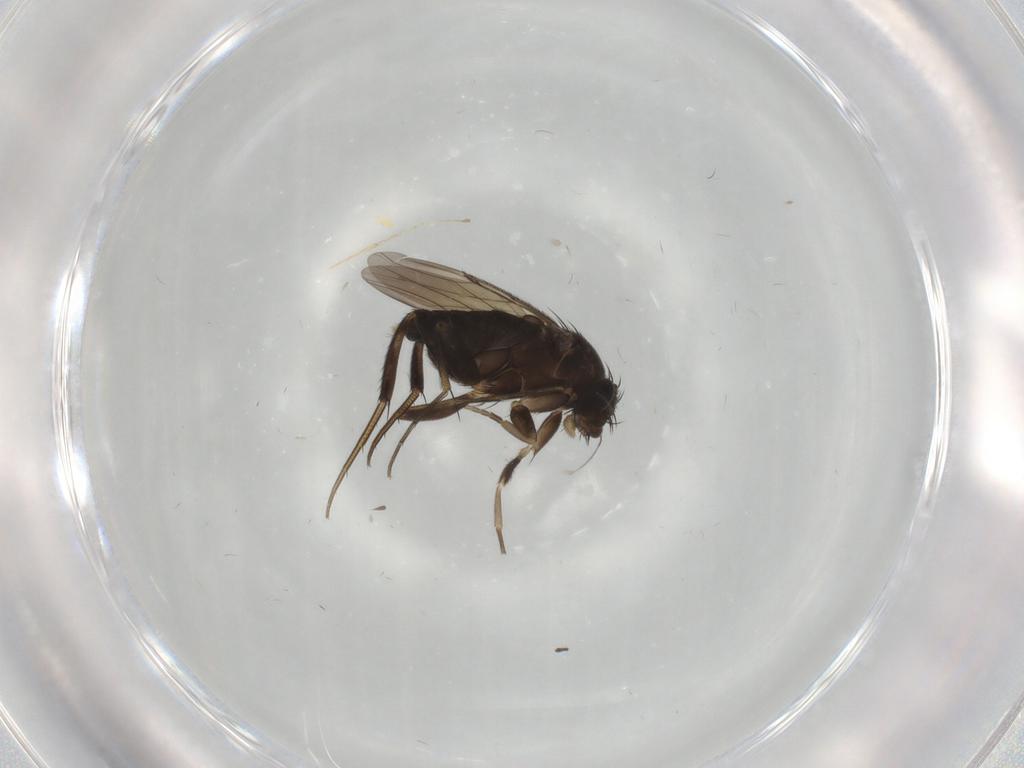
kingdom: Animalia
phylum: Arthropoda
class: Insecta
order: Diptera
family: Phoridae
